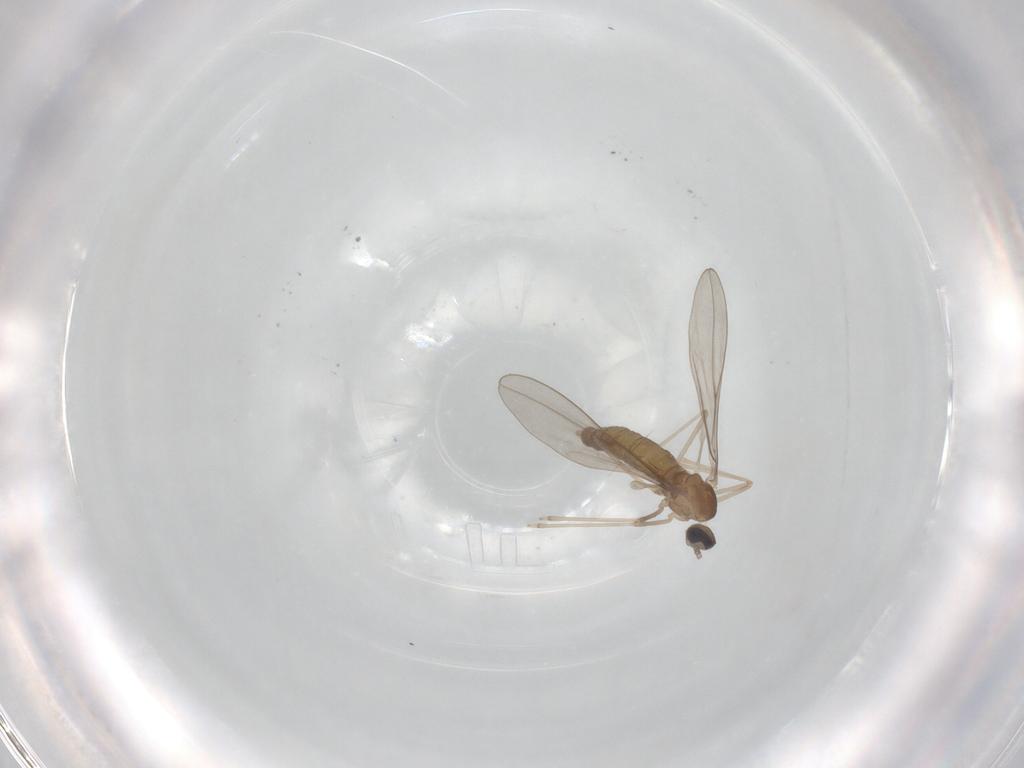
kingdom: Animalia
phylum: Arthropoda
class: Insecta
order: Diptera
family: Cecidomyiidae
